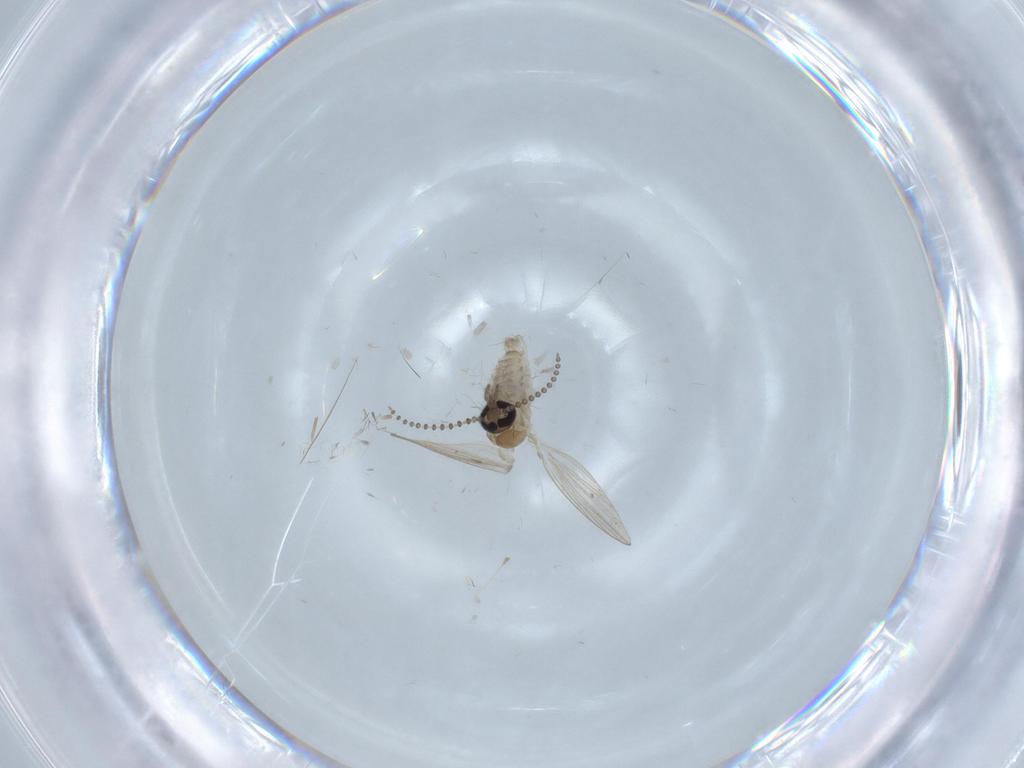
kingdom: Animalia
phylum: Arthropoda
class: Insecta
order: Diptera
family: Psychodidae
